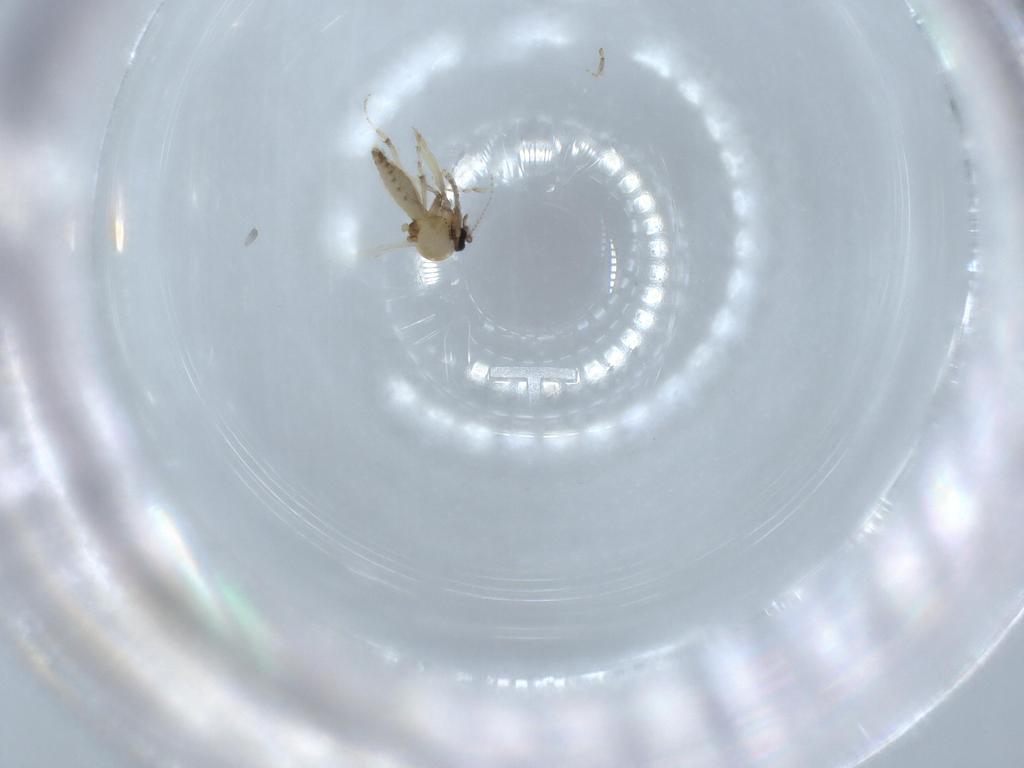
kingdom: Animalia
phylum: Arthropoda
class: Insecta
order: Diptera
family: Ceratopogonidae
